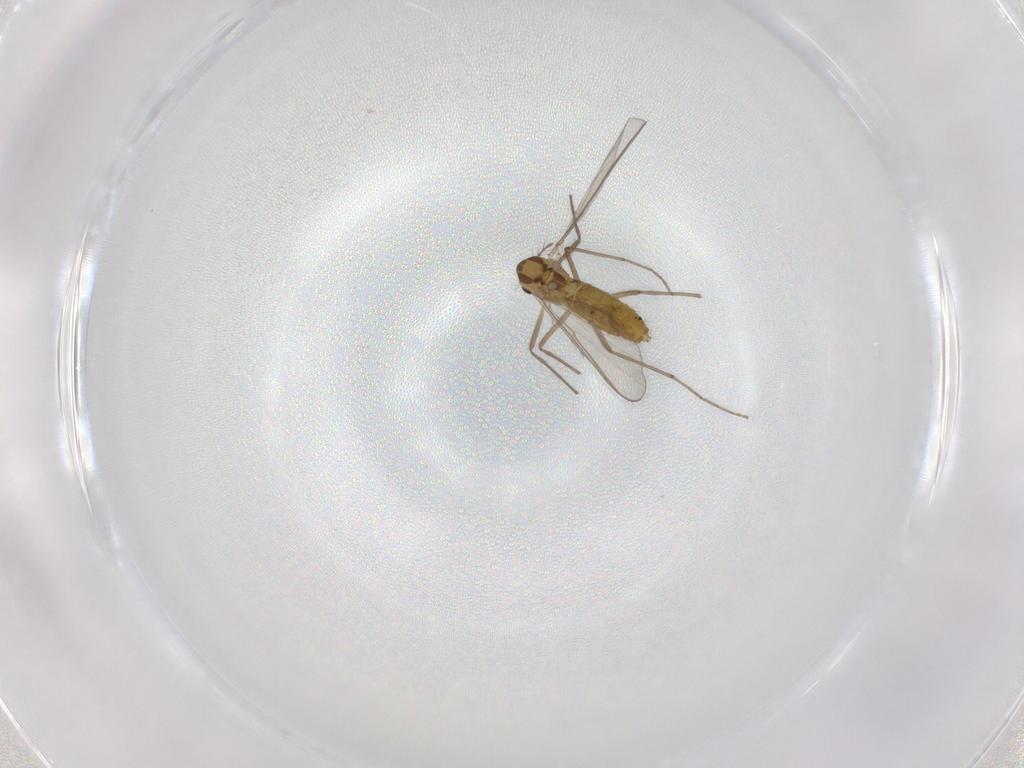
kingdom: Animalia
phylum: Arthropoda
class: Insecta
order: Diptera
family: Chironomidae
